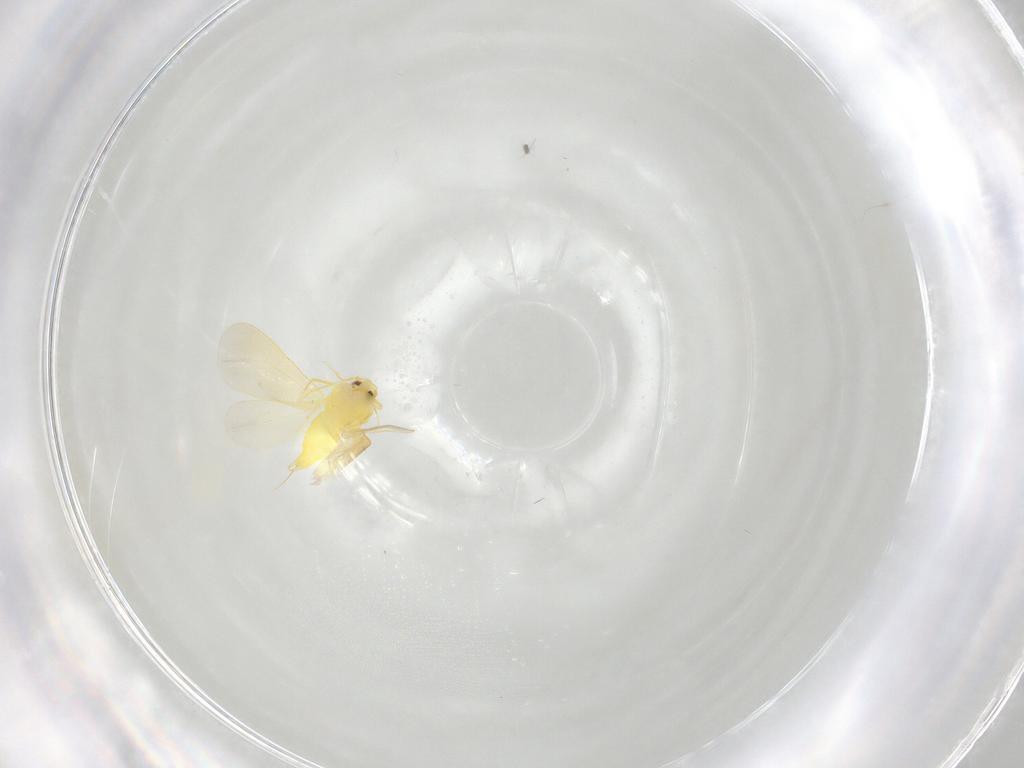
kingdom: Animalia
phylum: Arthropoda
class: Insecta
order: Hemiptera
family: Aleyrodidae
